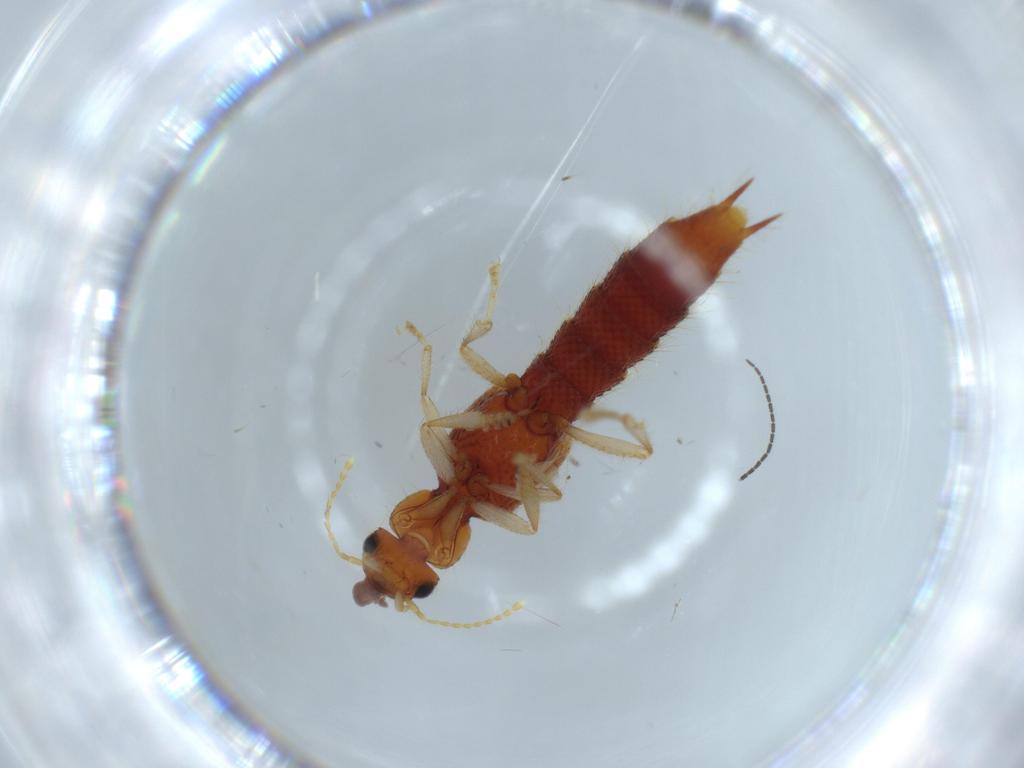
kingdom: Animalia
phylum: Arthropoda
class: Insecta
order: Coleoptera
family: Staphylinidae
